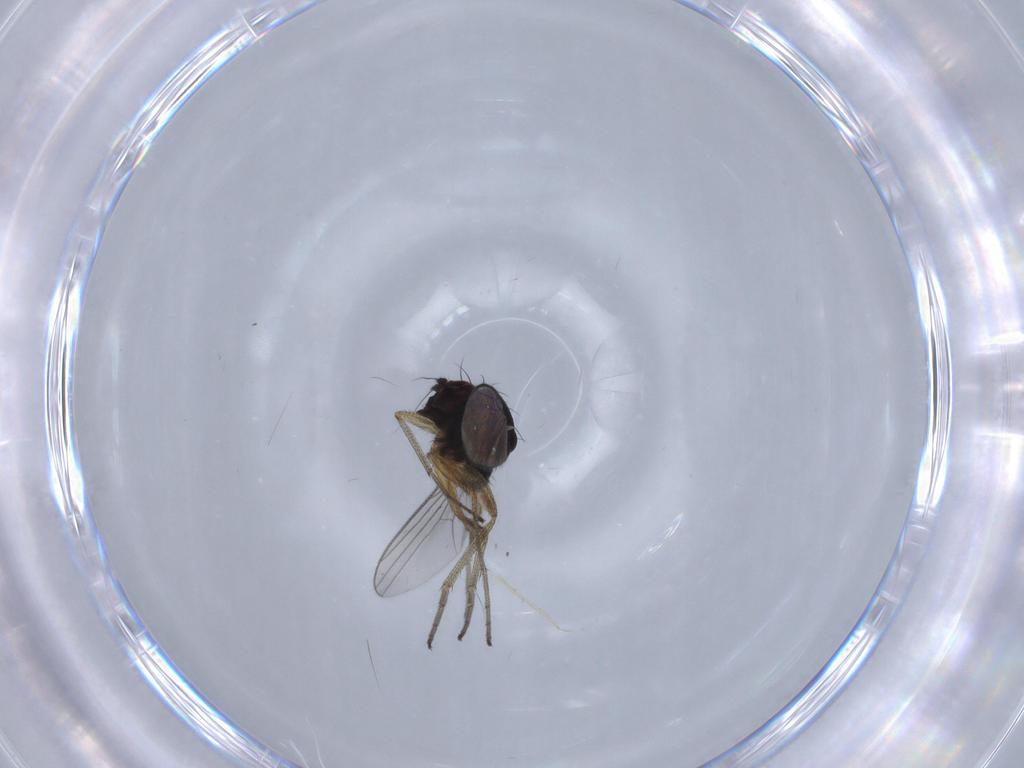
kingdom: Animalia
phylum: Arthropoda
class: Insecta
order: Diptera
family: Dolichopodidae
